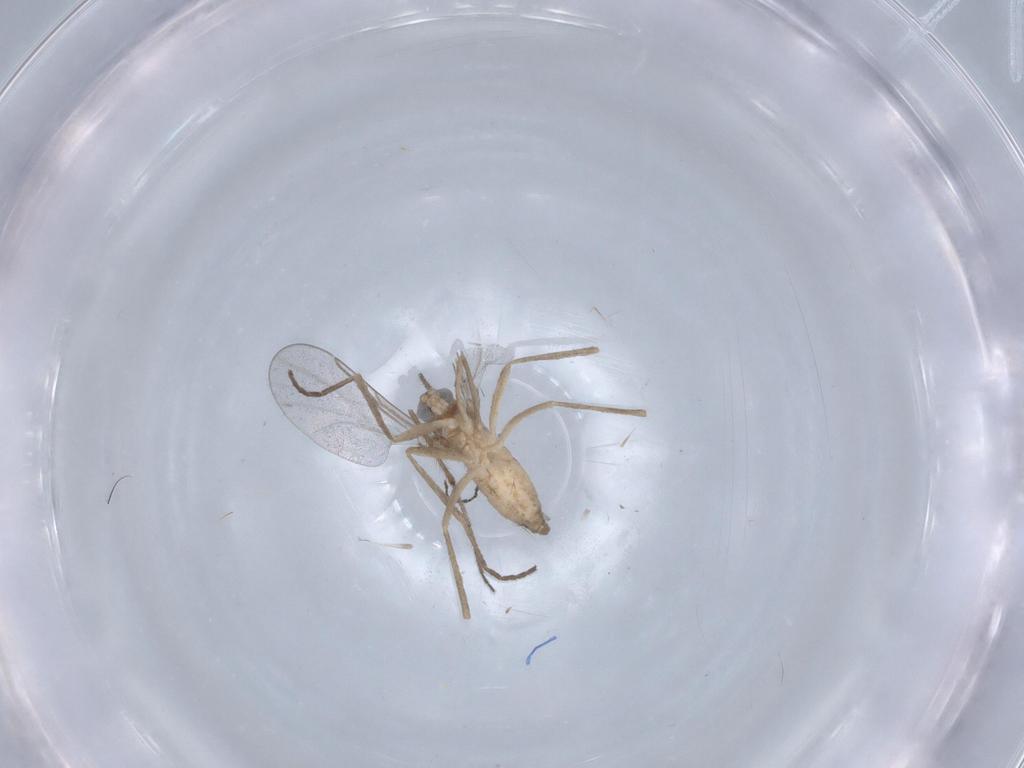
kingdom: Animalia
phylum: Arthropoda
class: Insecta
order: Diptera
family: Cecidomyiidae
